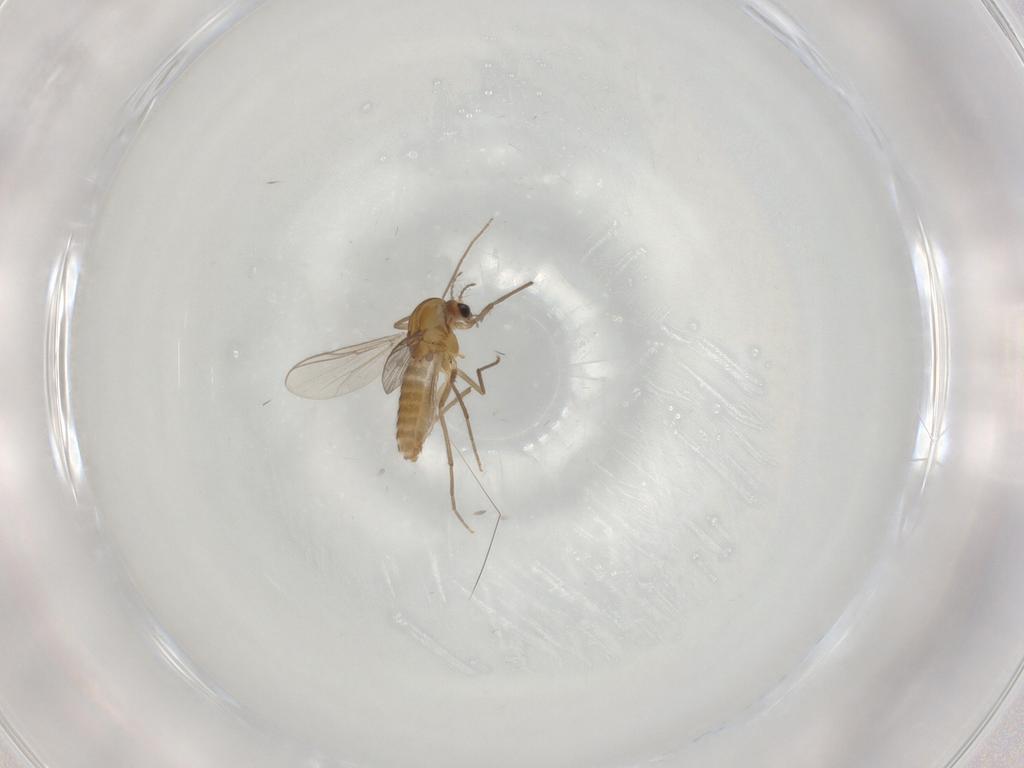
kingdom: Animalia
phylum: Arthropoda
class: Insecta
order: Diptera
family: Chironomidae
